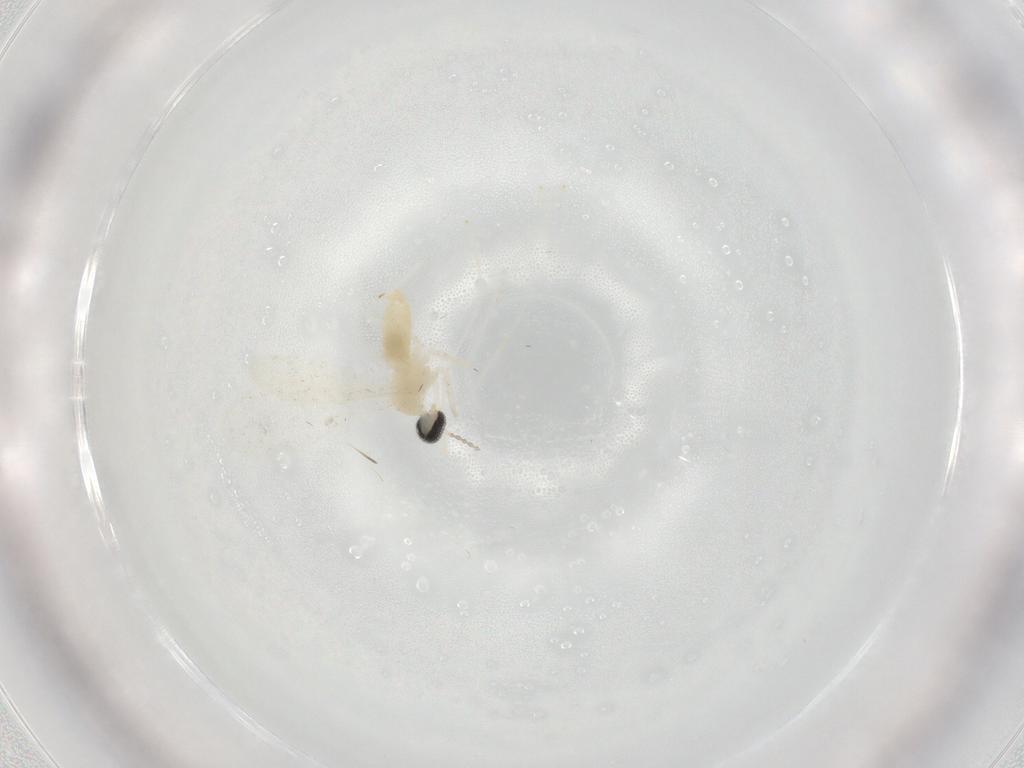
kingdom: Animalia
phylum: Arthropoda
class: Insecta
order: Diptera
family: Cecidomyiidae
